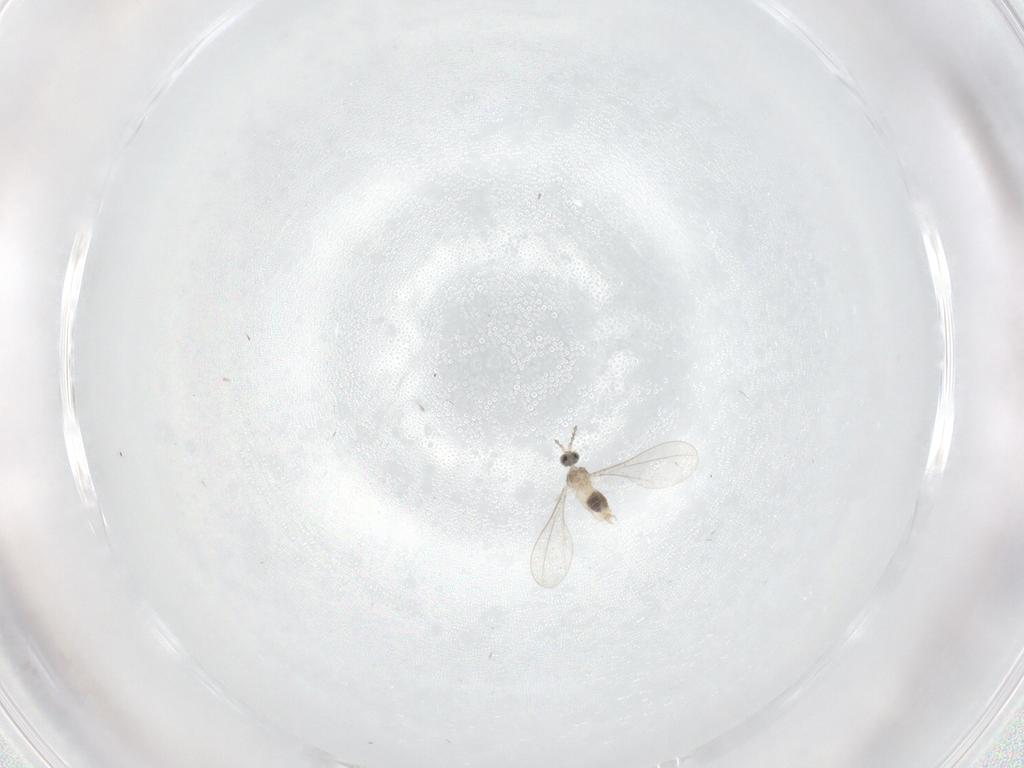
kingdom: Animalia
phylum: Arthropoda
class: Insecta
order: Diptera
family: Cecidomyiidae
